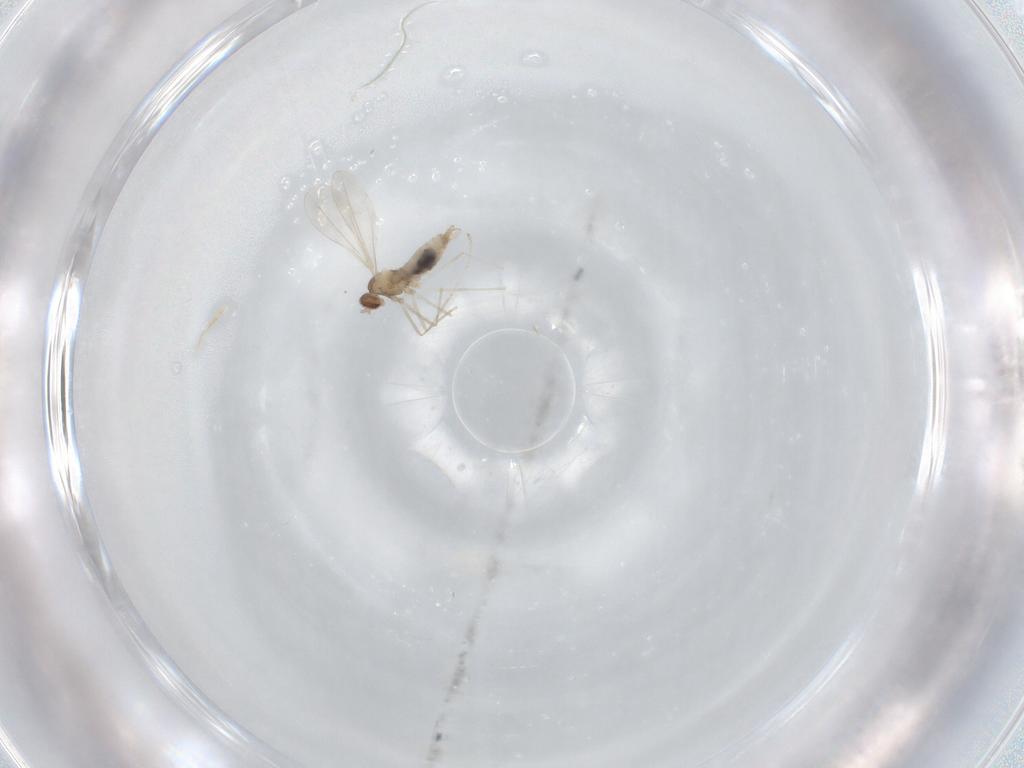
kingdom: Animalia
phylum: Arthropoda
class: Insecta
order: Diptera
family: Cecidomyiidae
